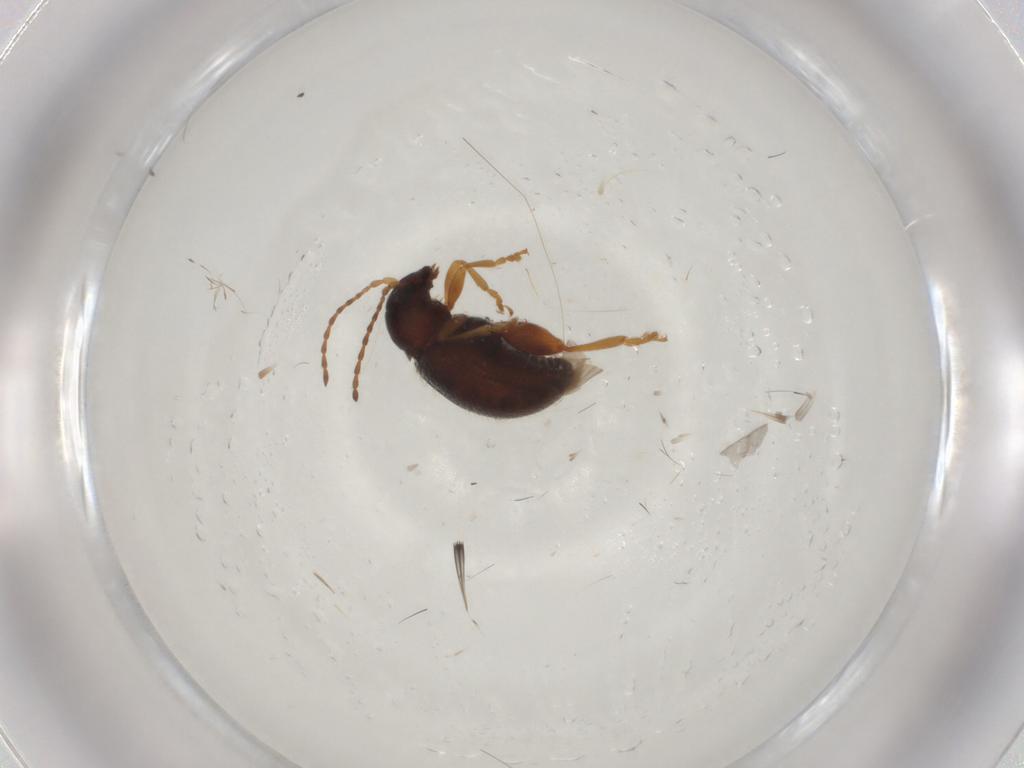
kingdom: Animalia
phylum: Arthropoda
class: Insecta
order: Coleoptera
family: Chrysomelidae
